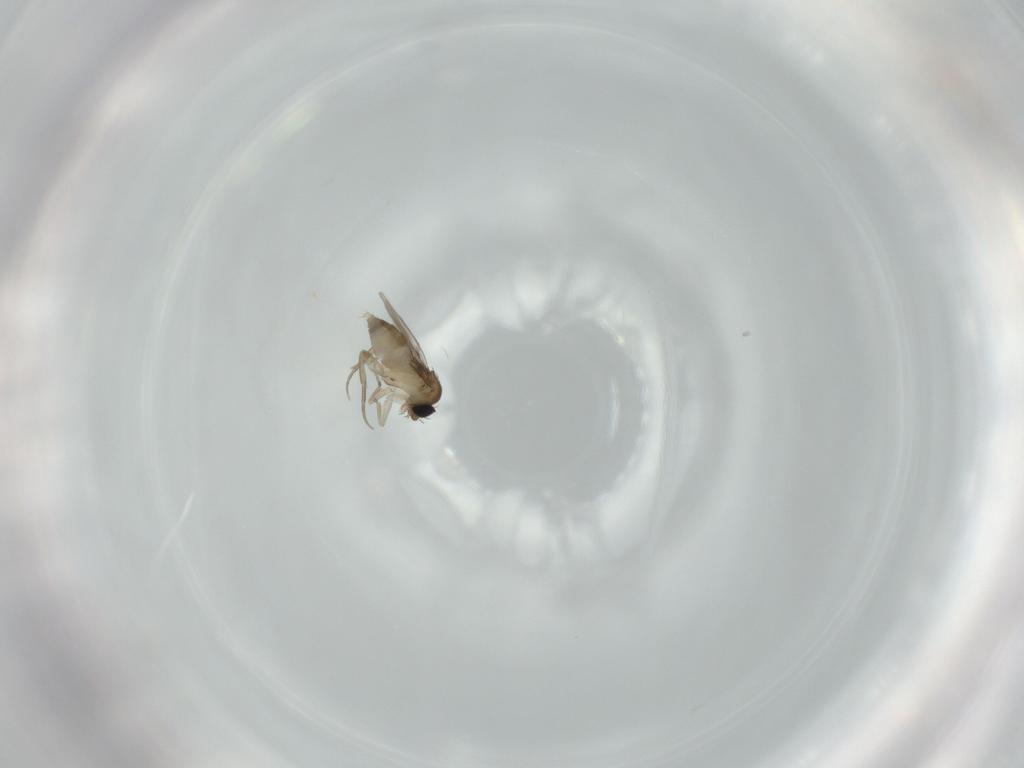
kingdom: Animalia
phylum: Arthropoda
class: Insecta
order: Diptera
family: Phoridae
